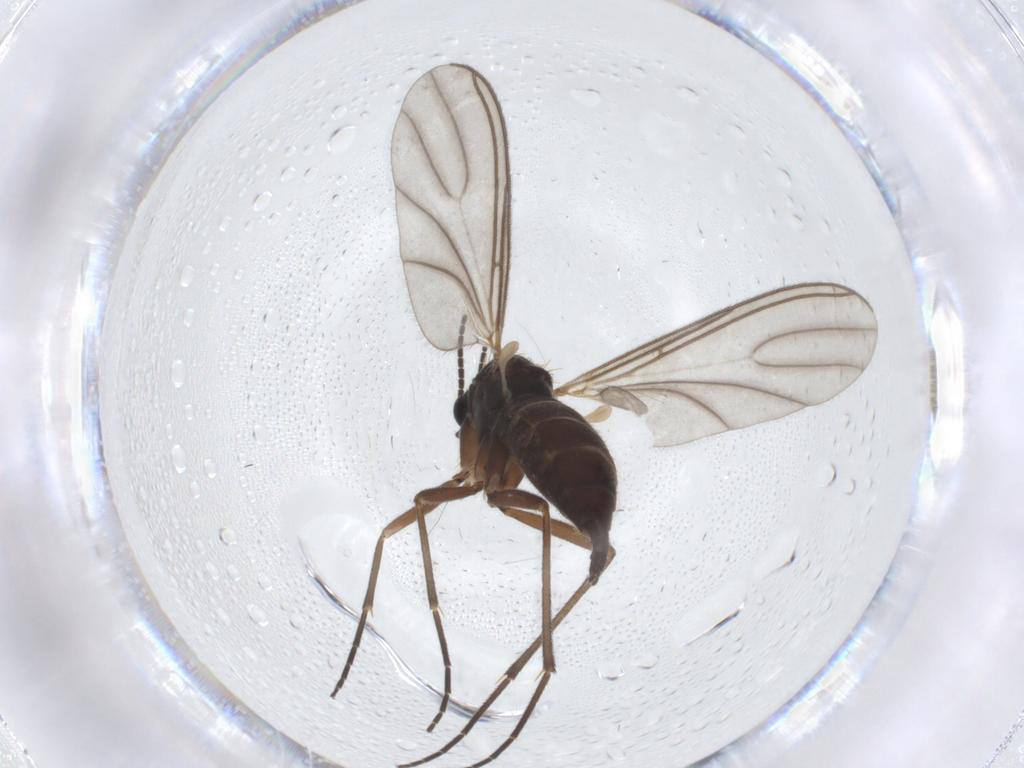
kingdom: Animalia
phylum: Arthropoda
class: Insecta
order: Diptera
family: Sciaridae
